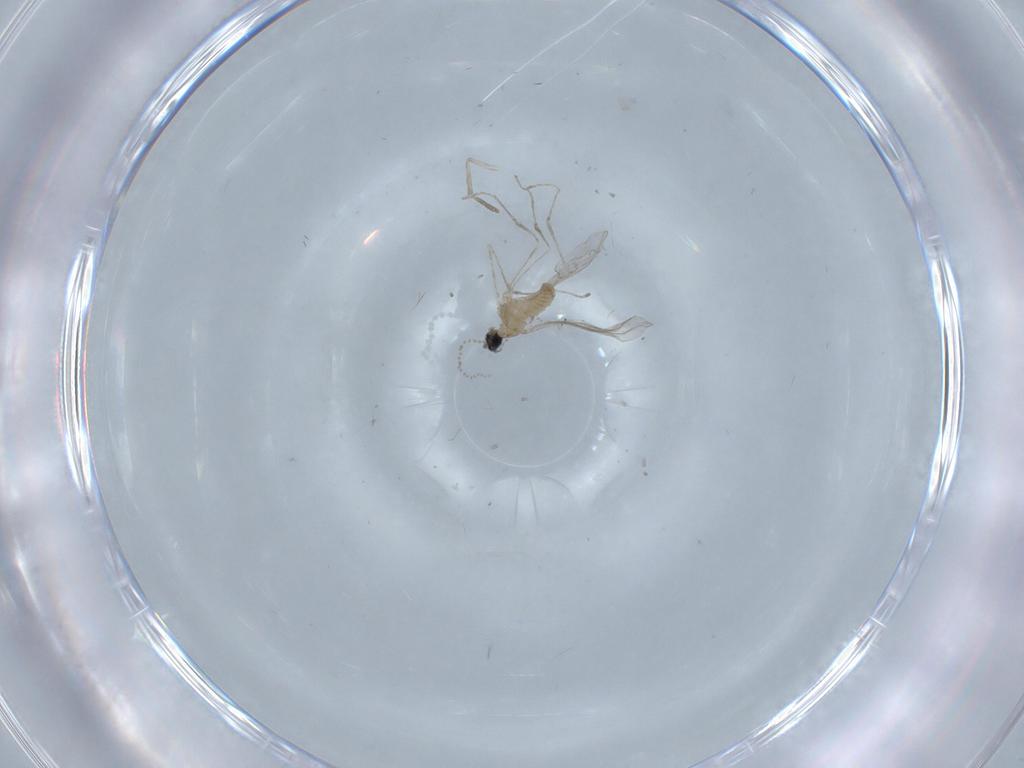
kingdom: Animalia
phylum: Arthropoda
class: Insecta
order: Diptera
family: Cecidomyiidae
